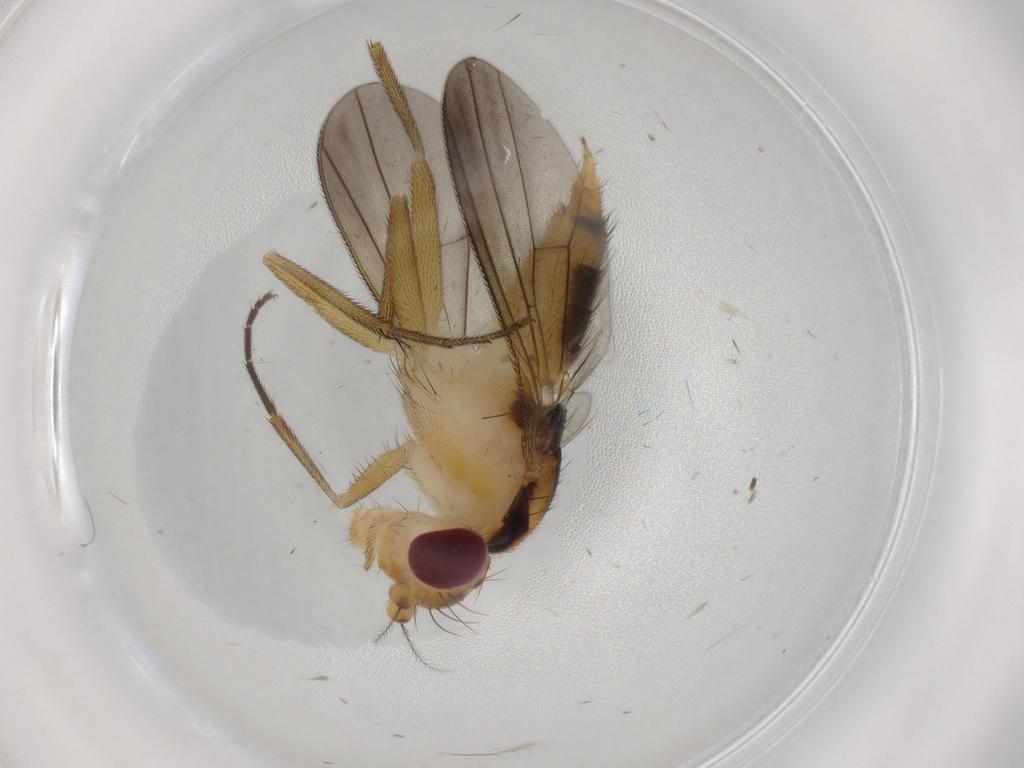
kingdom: Animalia
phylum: Arthropoda
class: Insecta
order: Diptera
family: Clusiidae
